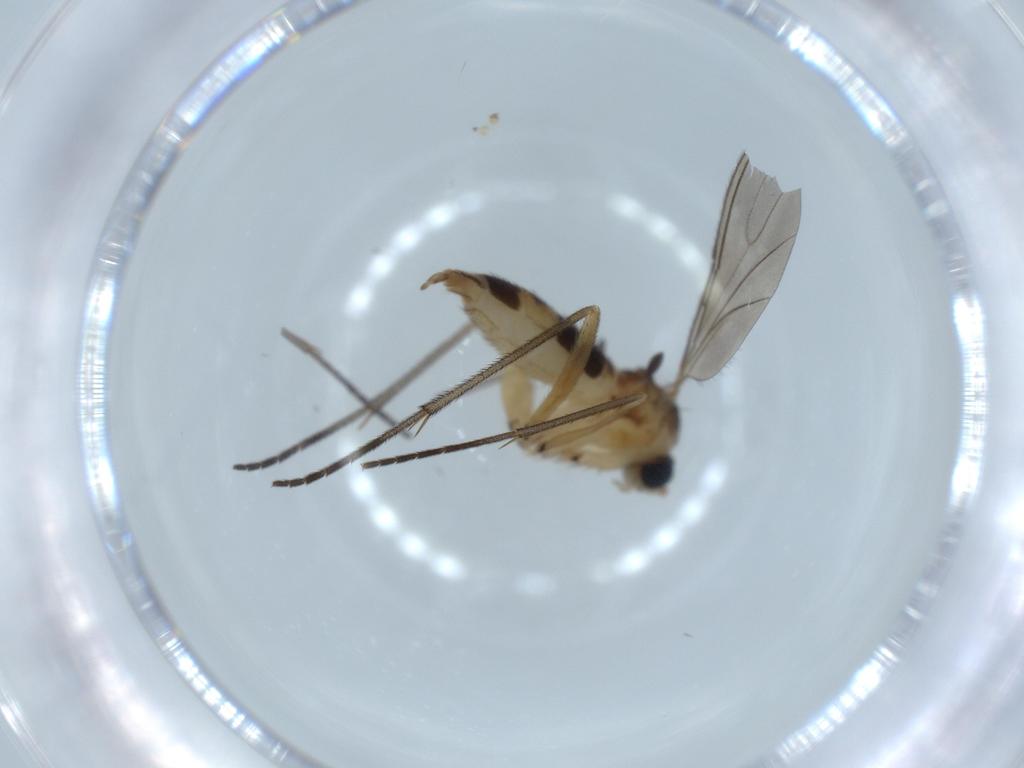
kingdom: Animalia
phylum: Arthropoda
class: Insecta
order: Diptera
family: Sciaridae
